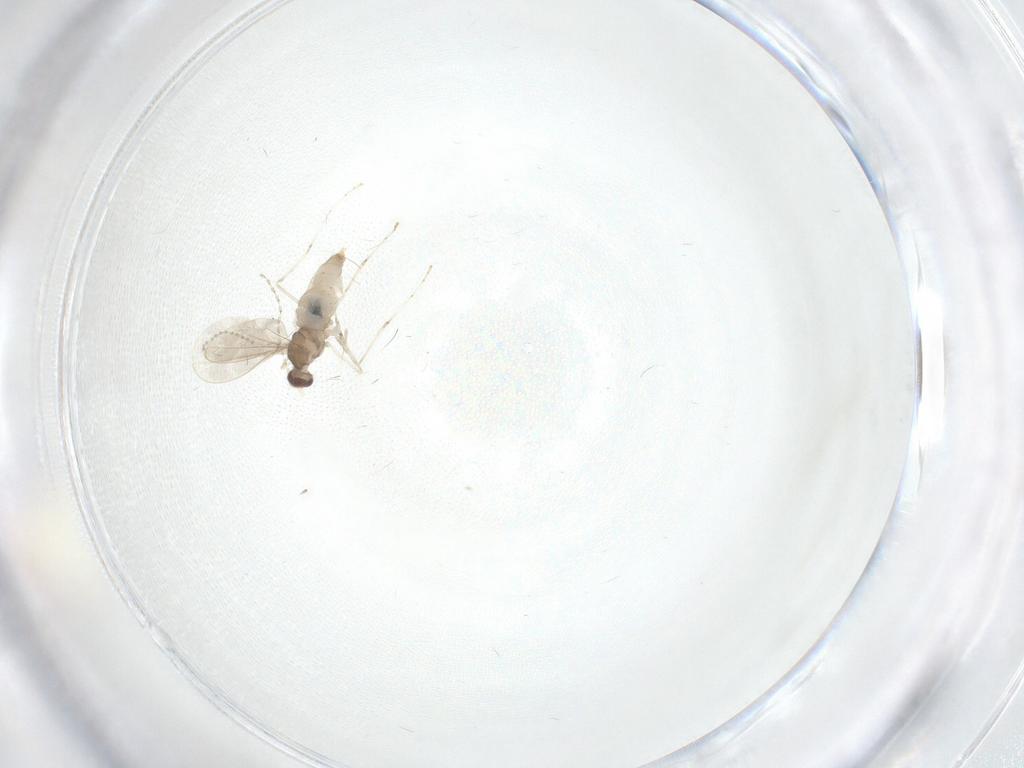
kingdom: Animalia
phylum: Arthropoda
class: Insecta
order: Diptera
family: Cecidomyiidae
